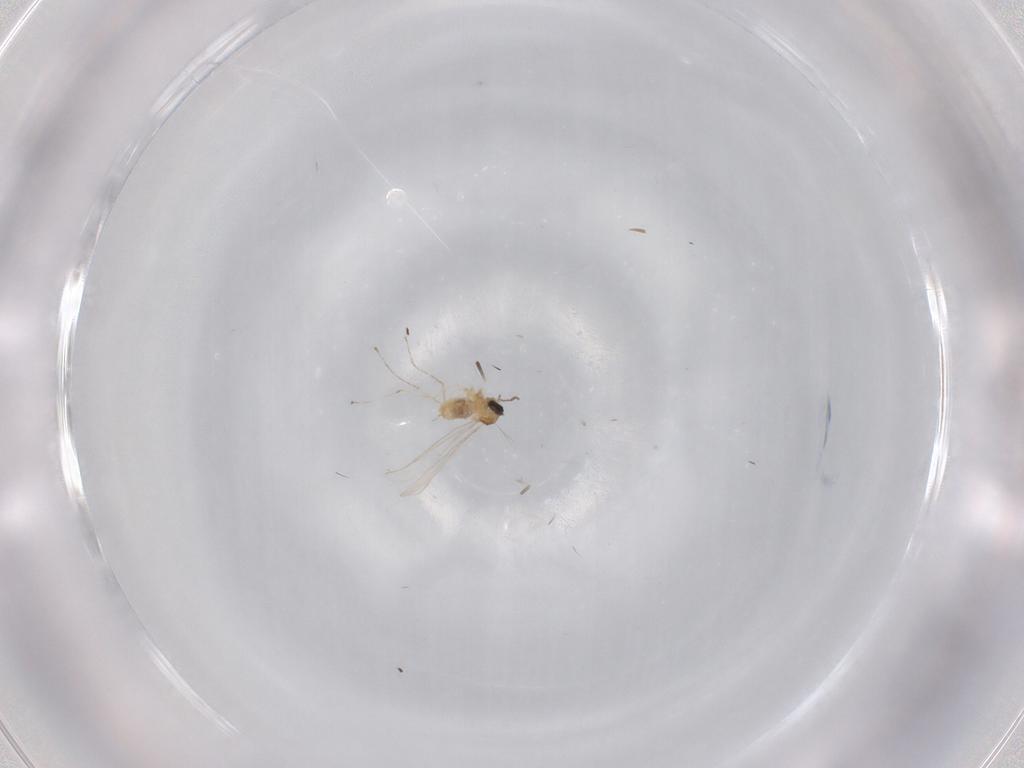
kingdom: Animalia
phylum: Arthropoda
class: Insecta
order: Diptera
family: Cecidomyiidae
